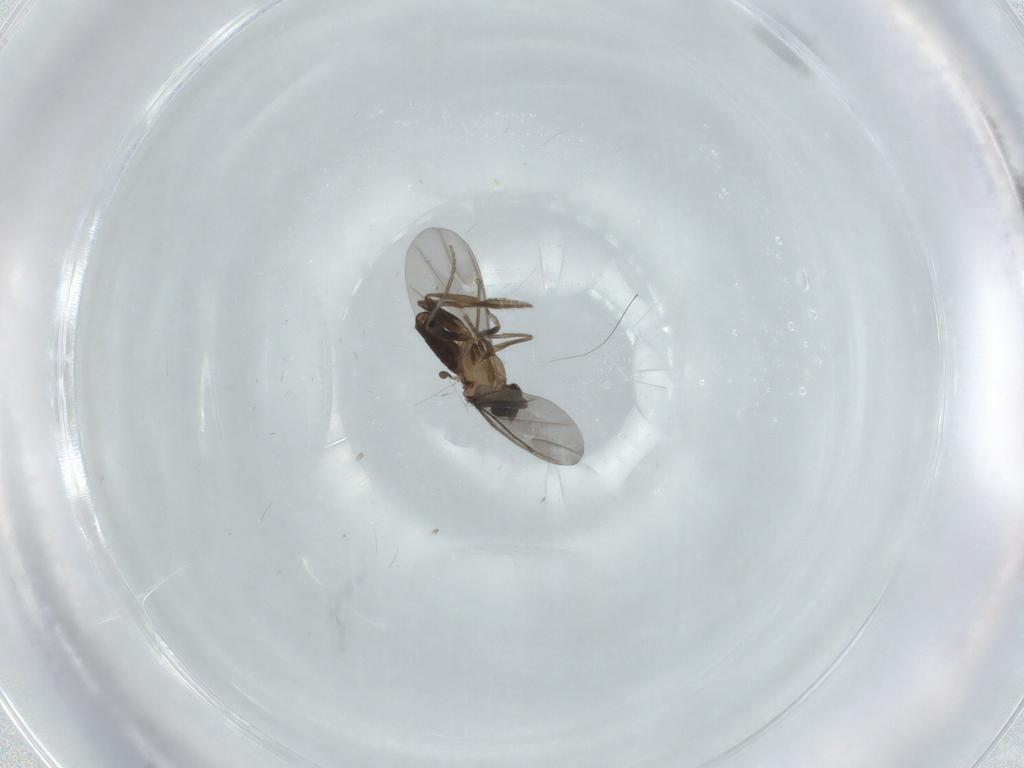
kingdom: Animalia
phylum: Arthropoda
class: Insecta
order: Diptera
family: Phoridae
